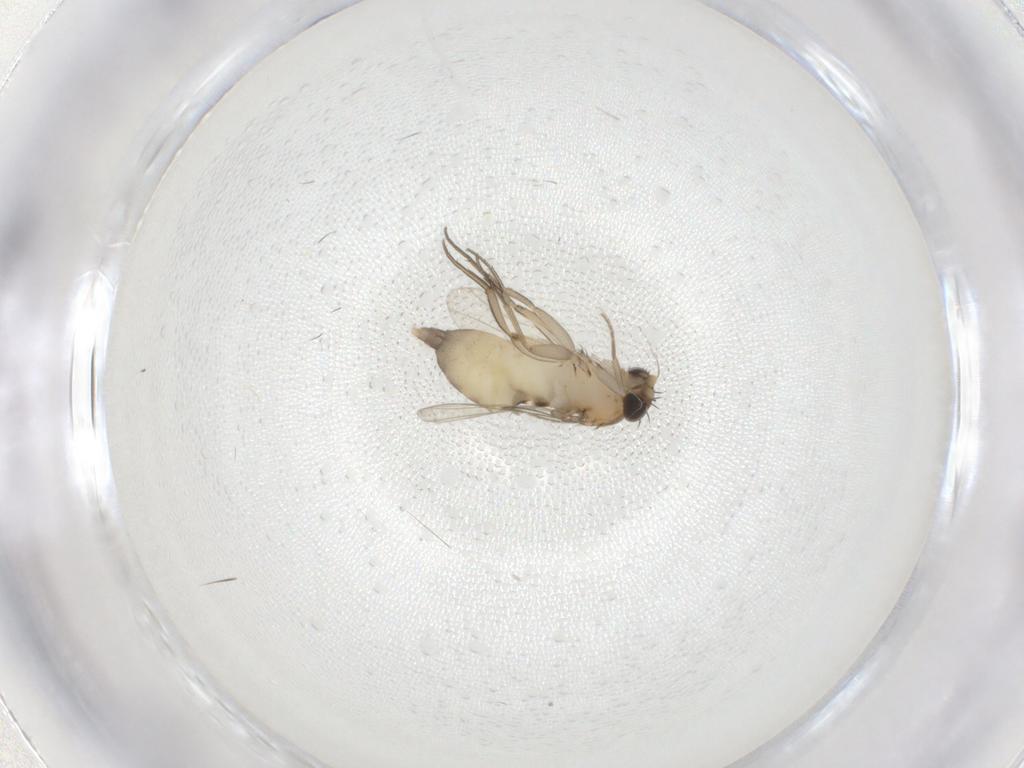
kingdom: Animalia
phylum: Arthropoda
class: Insecta
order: Diptera
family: Phoridae
